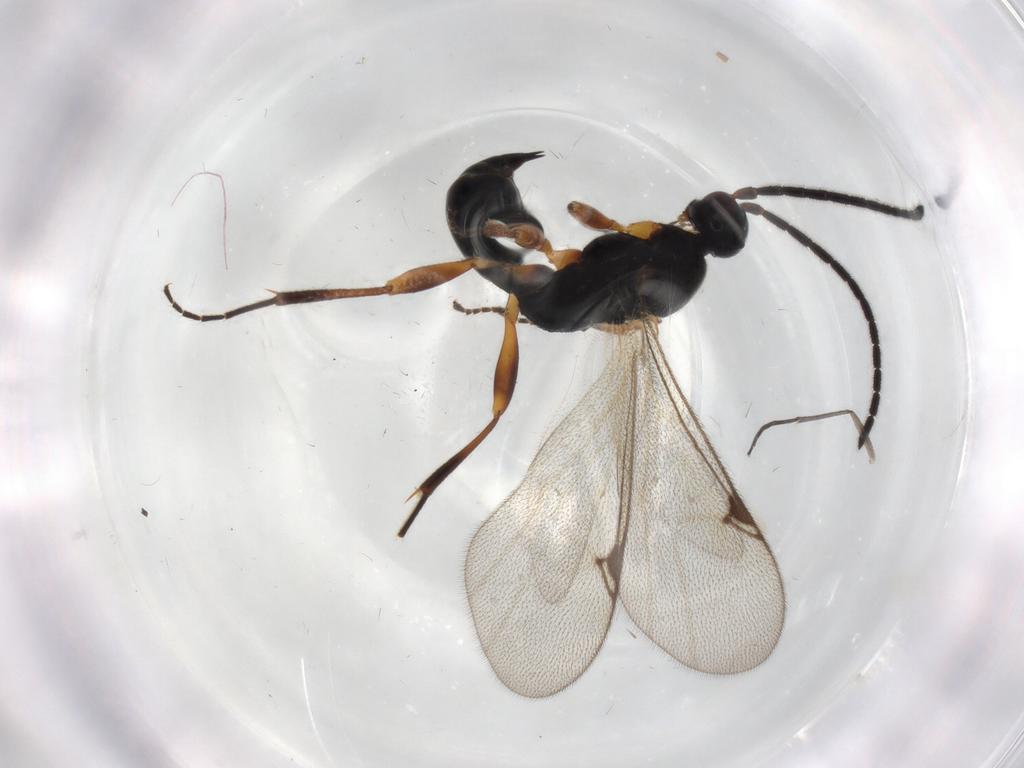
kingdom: Animalia
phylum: Arthropoda
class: Insecta
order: Hymenoptera
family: Proctotrupidae
